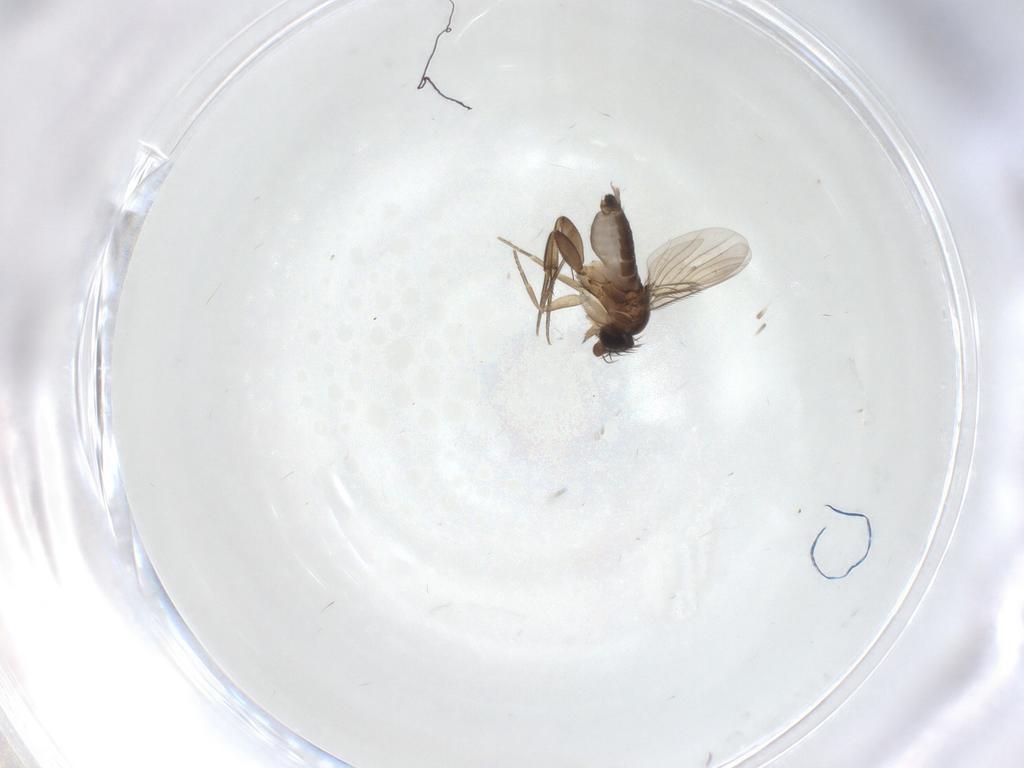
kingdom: Animalia
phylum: Arthropoda
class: Insecta
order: Diptera
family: Phoridae
